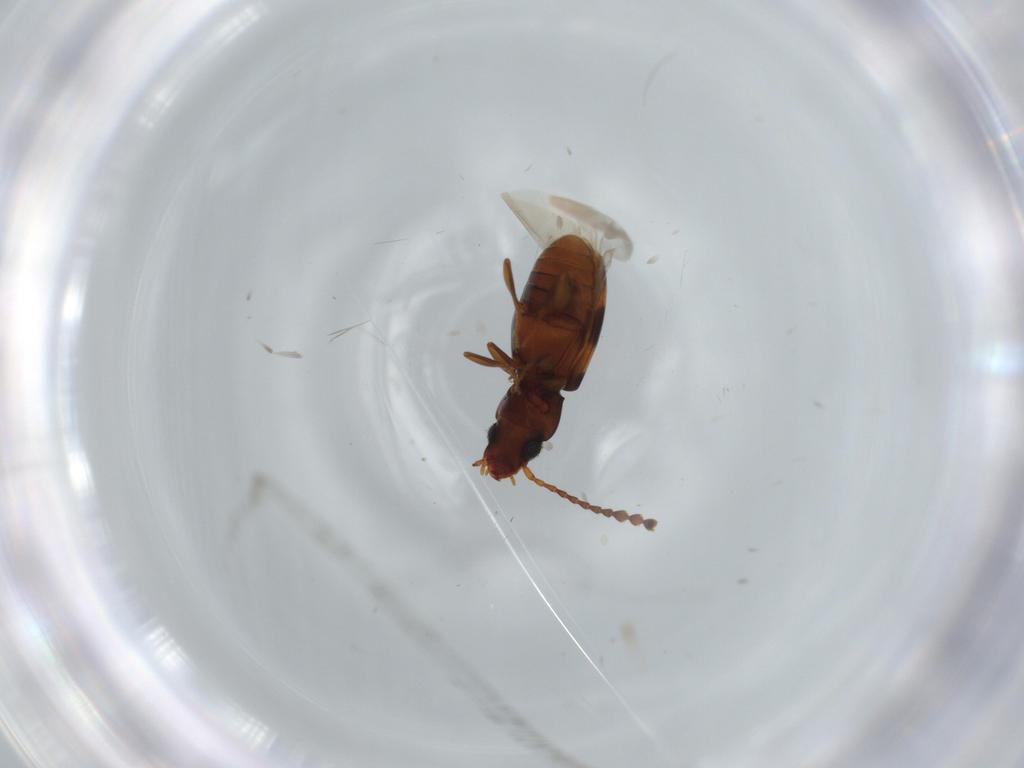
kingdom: Animalia
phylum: Arthropoda
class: Insecta
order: Coleoptera
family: Laemophloeidae
